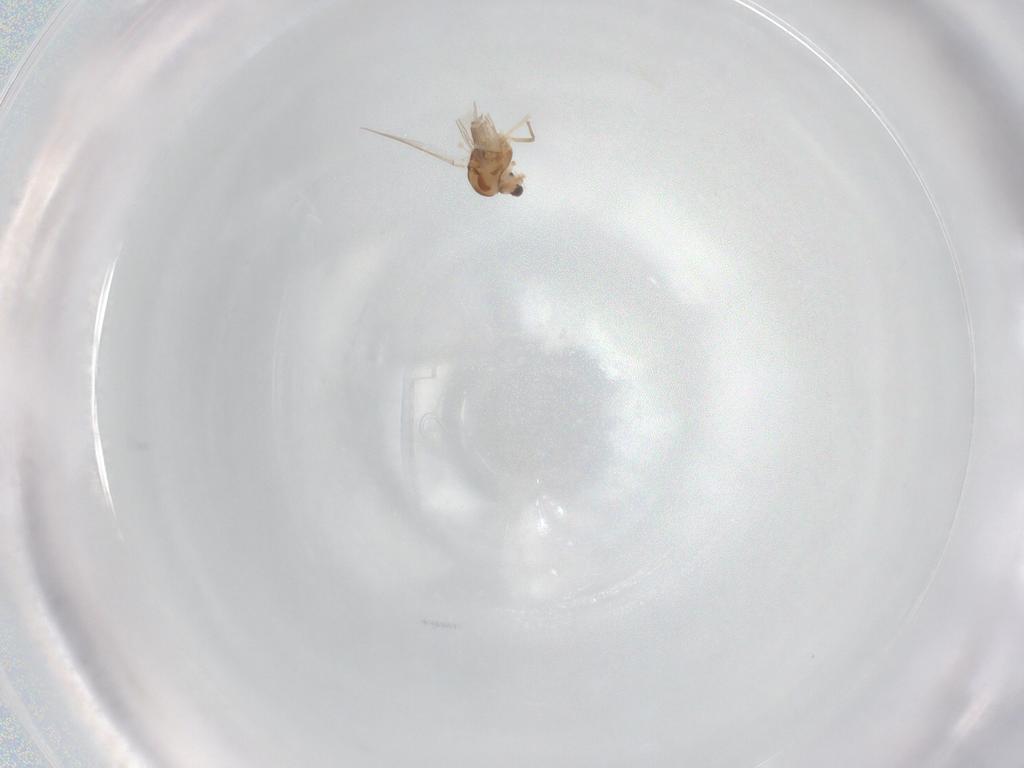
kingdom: Animalia
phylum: Arthropoda
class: Insecta
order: Diptera
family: Chironomidae
